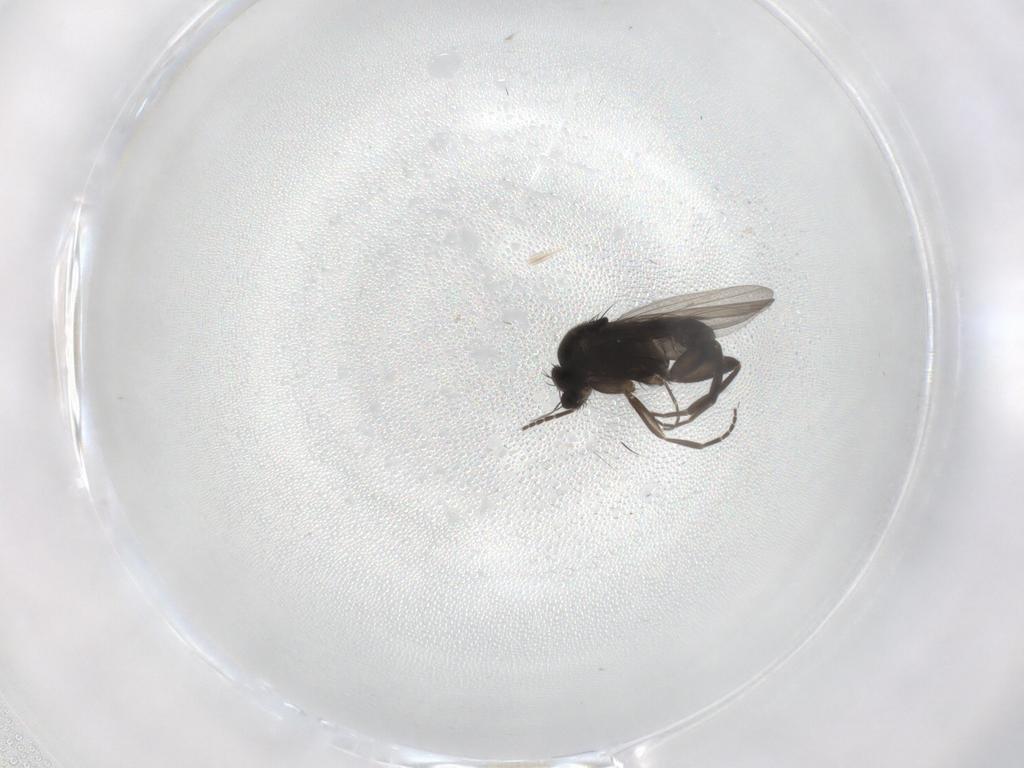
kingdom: Animalia
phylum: Arthropoda
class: Insecta
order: Diptera
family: Phoridae
